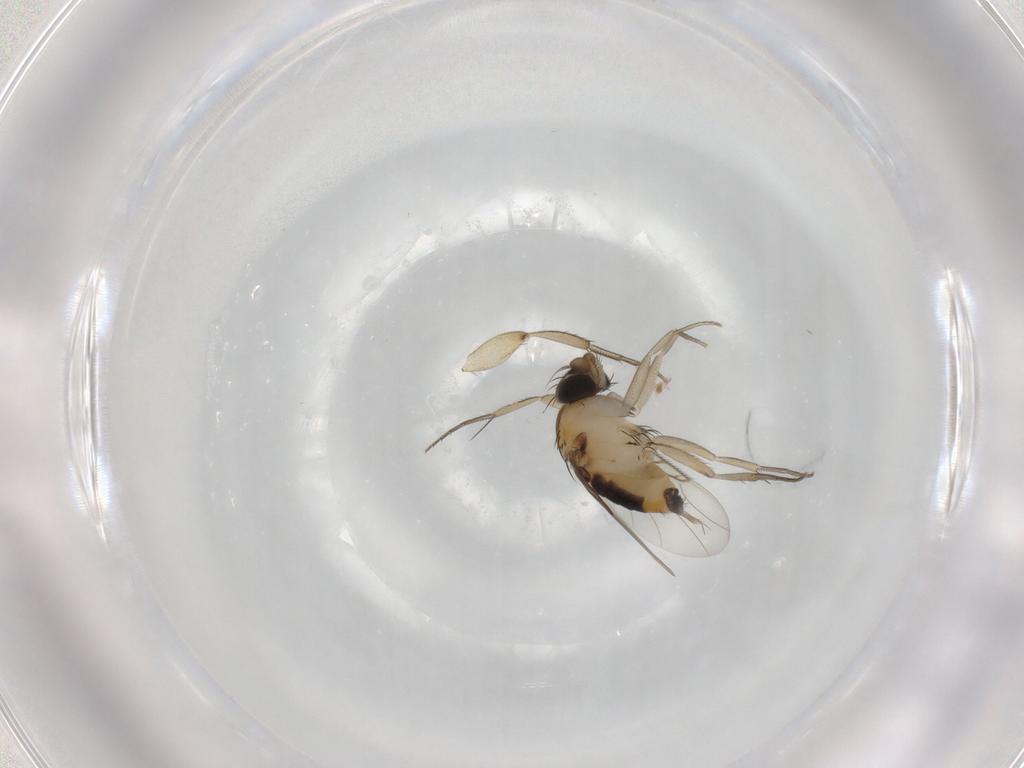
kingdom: Animalia
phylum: Arthropoda
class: Insecta
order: Diptera
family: Phoridae
